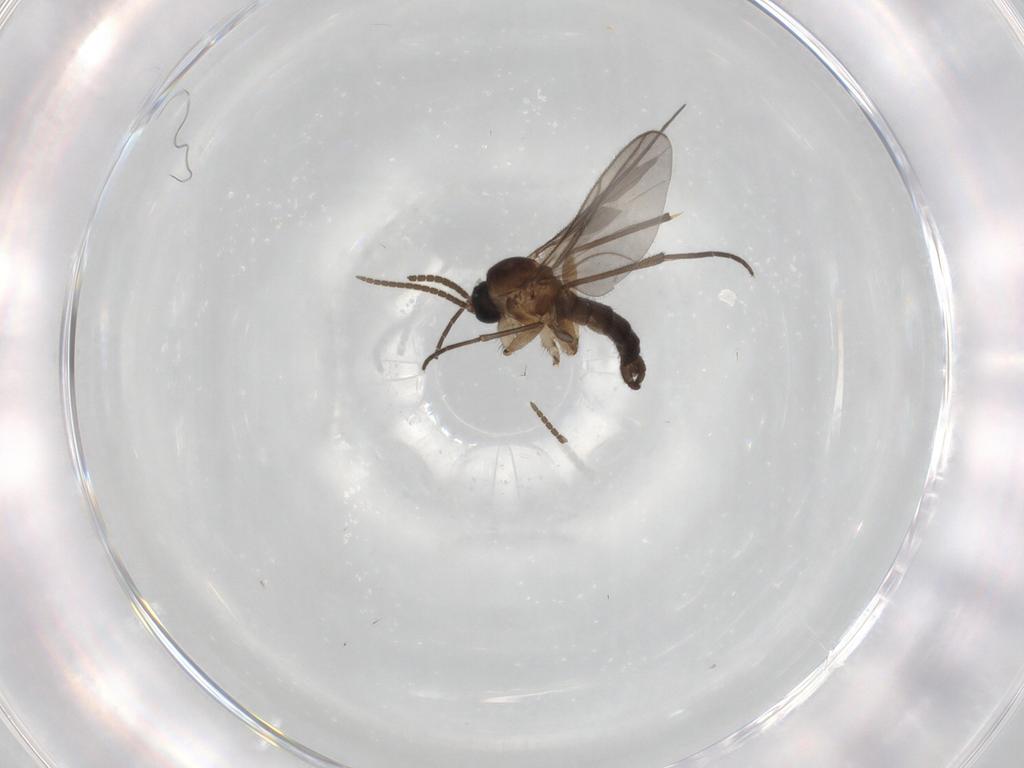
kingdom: Animalia
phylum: Arthropoda
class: Insecta
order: Diptera
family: Sciaridae
